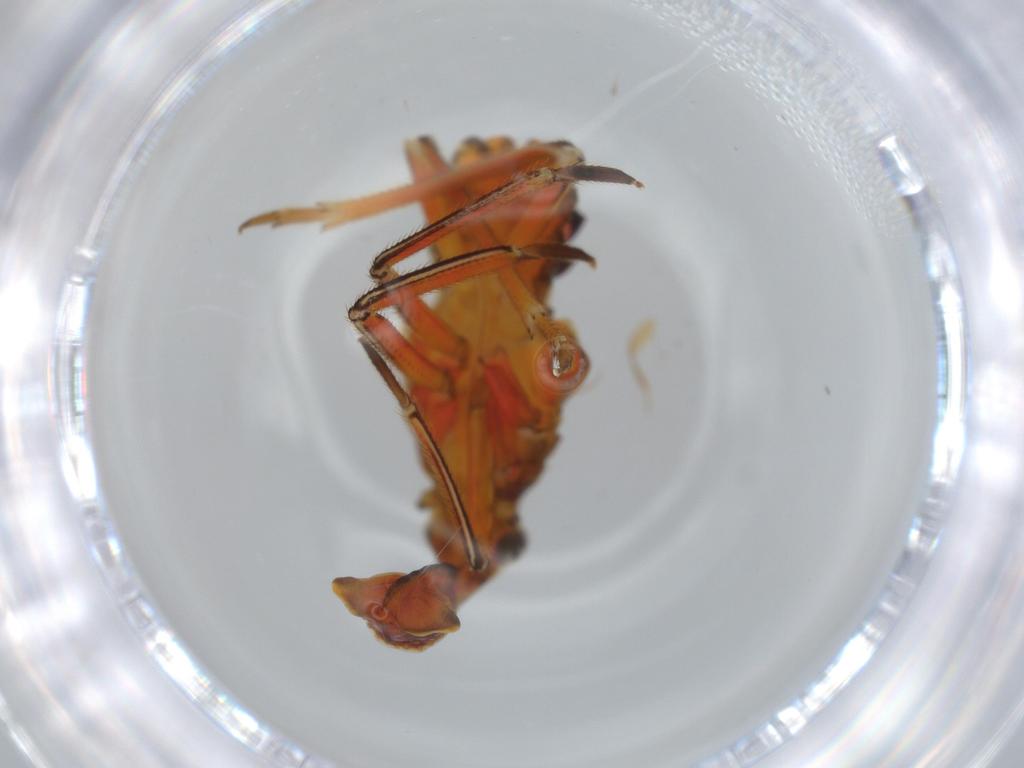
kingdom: Animalia
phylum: Arthropoda
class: Insecta
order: Hemiptera
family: Fulgoridae
